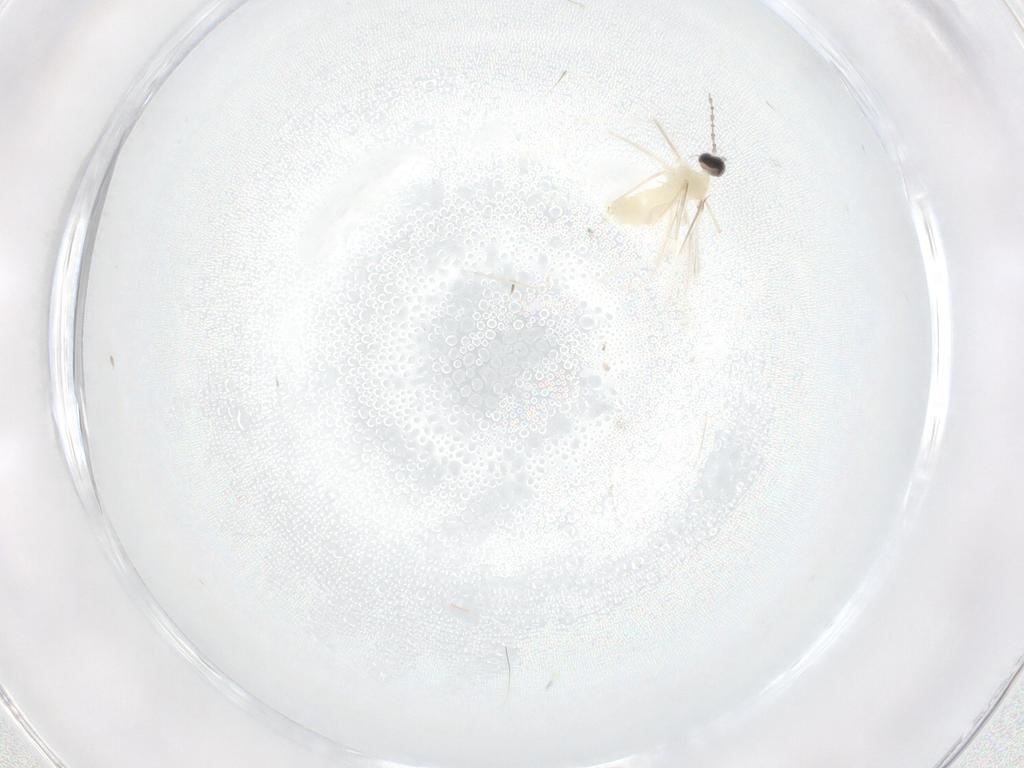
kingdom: Animalia
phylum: Arthropoda
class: Insecta
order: Diptera
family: Cecidomyiidae
